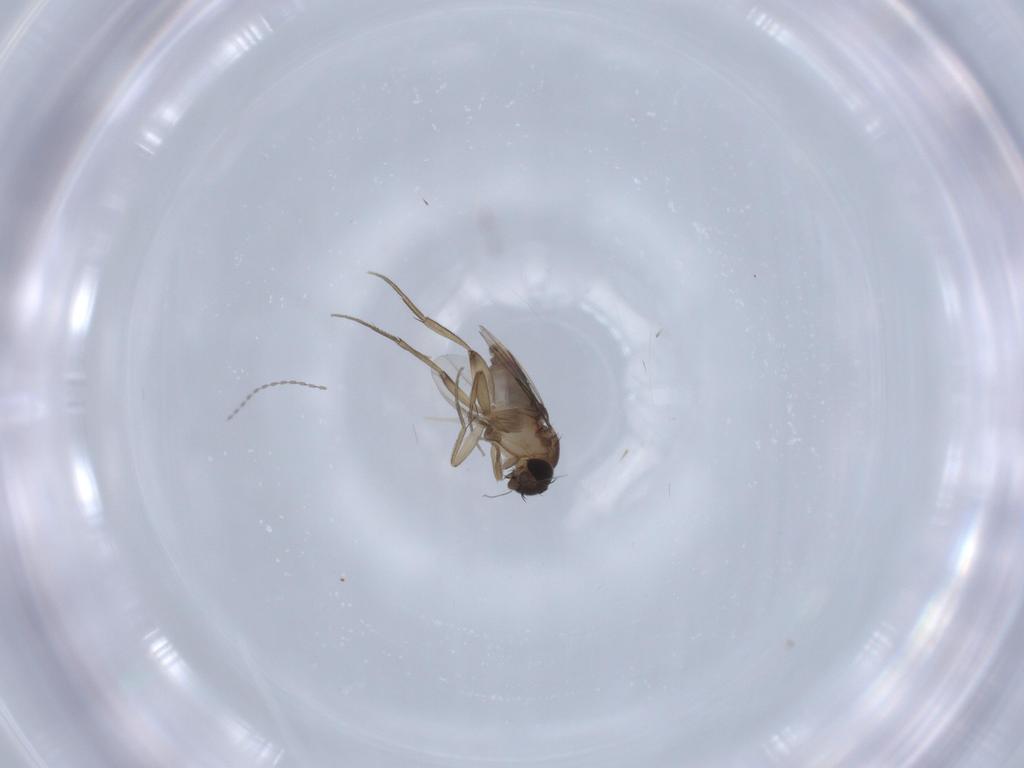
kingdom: Animalia
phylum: Arthropoda
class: Insecta
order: Diptera
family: Phoridae
